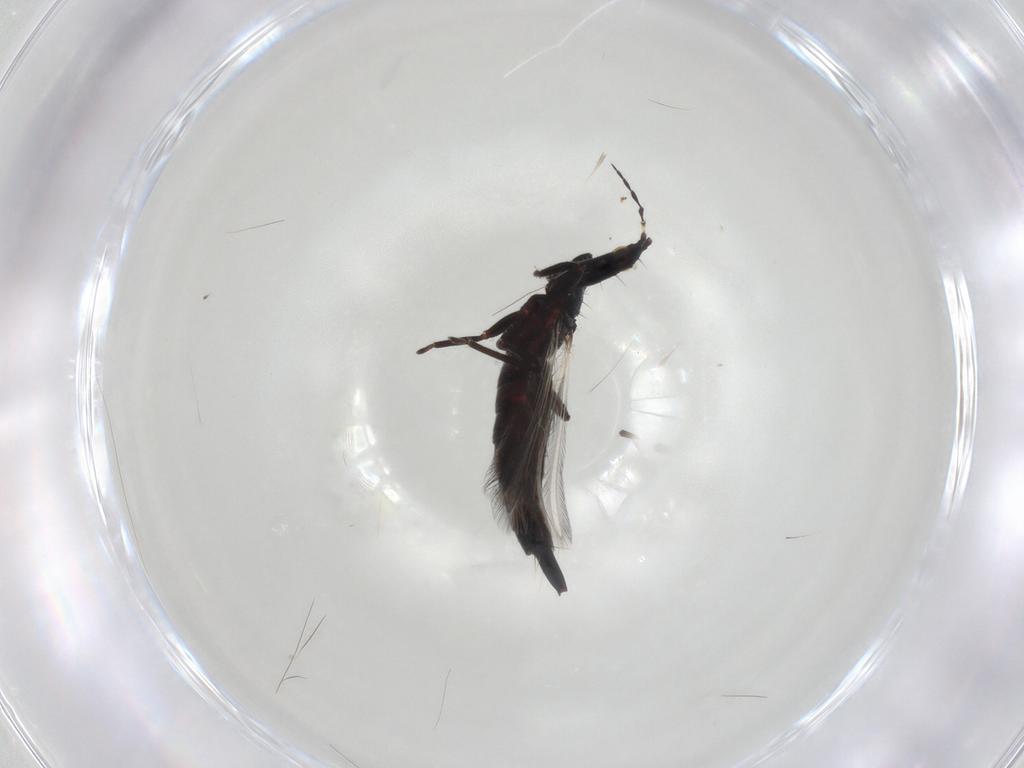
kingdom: Animalia
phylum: Arthropoda
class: Insecta
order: Thysanoptera
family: Phlaeothripidae
